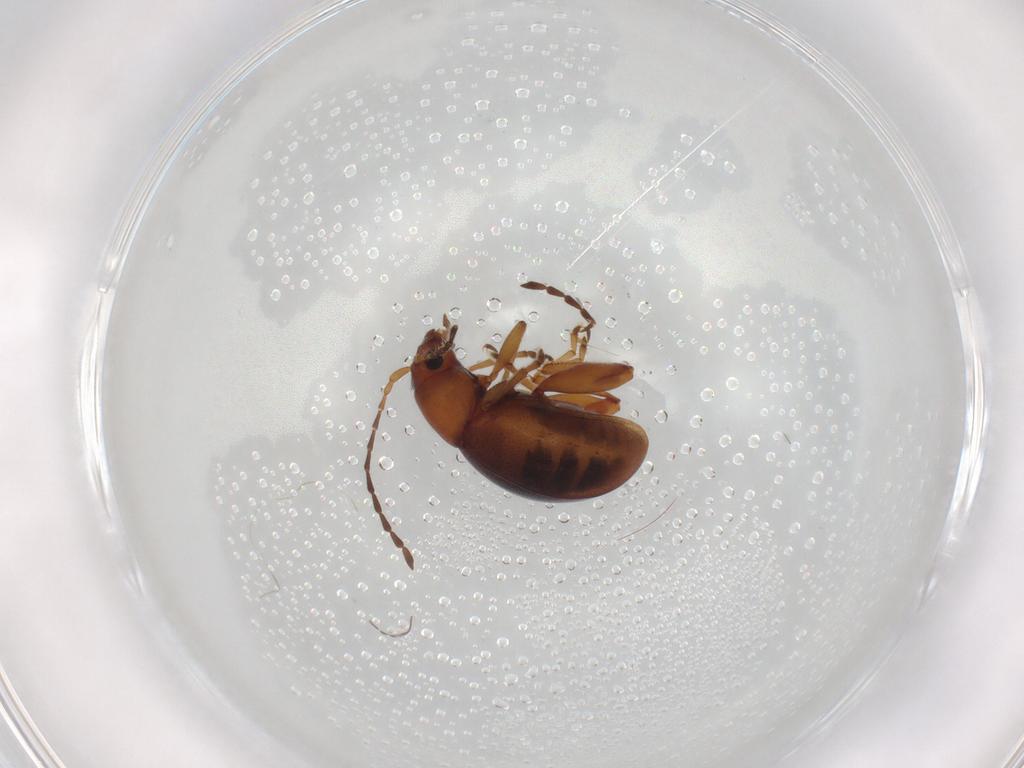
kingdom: Animalia
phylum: Arthropoda
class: Insecta
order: Coleoptera
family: Chrysomelidae
